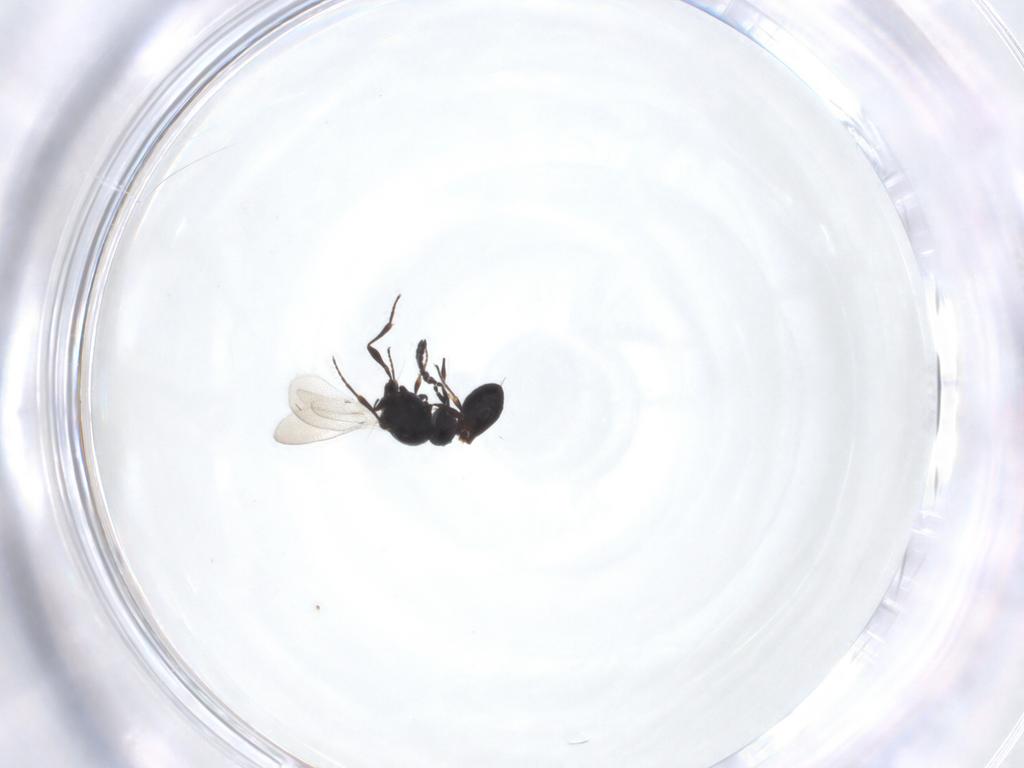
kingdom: Animalia
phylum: Arthropoda
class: Insecta
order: Hymenoptera
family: Platygastridae
